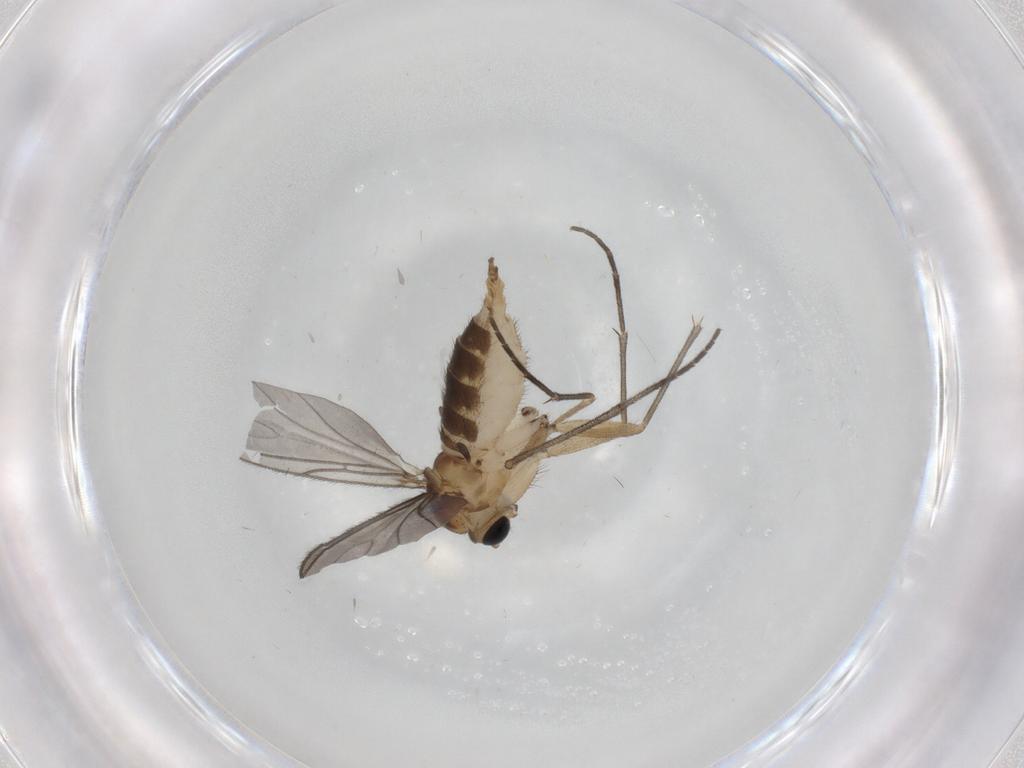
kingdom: Animalia
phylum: Arthropoda
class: Insecta
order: Diptera
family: Sciaridae
